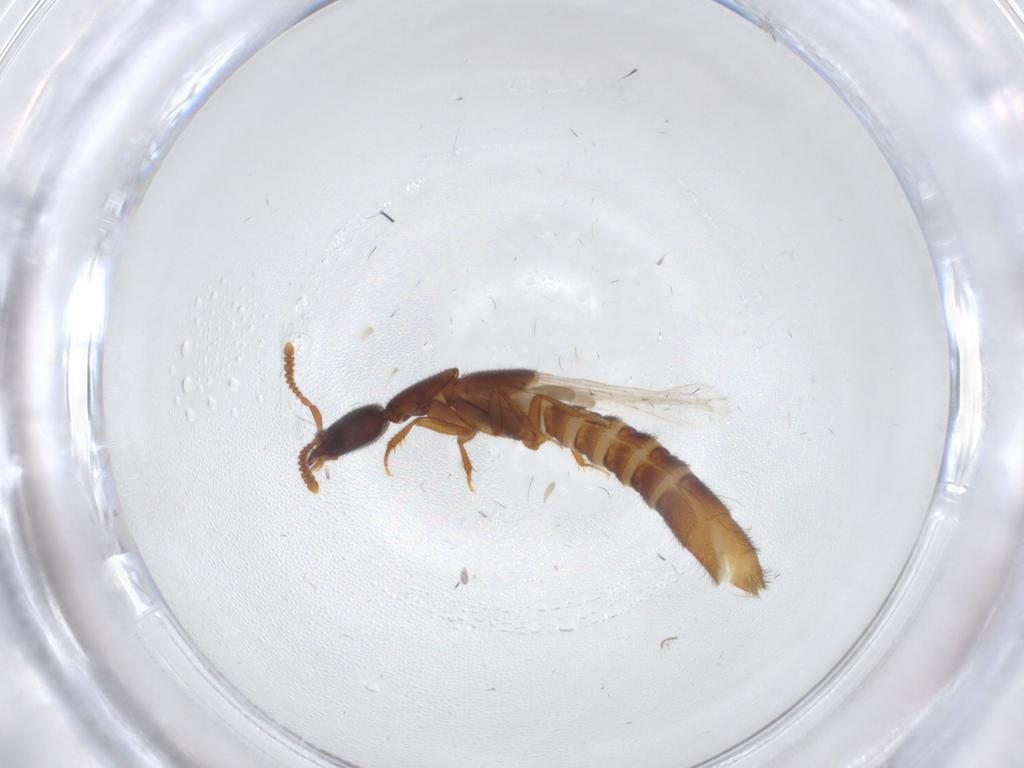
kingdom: Animalia
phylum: Arthropoda
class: Insecta
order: Coleoptera
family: Staphylinidae
